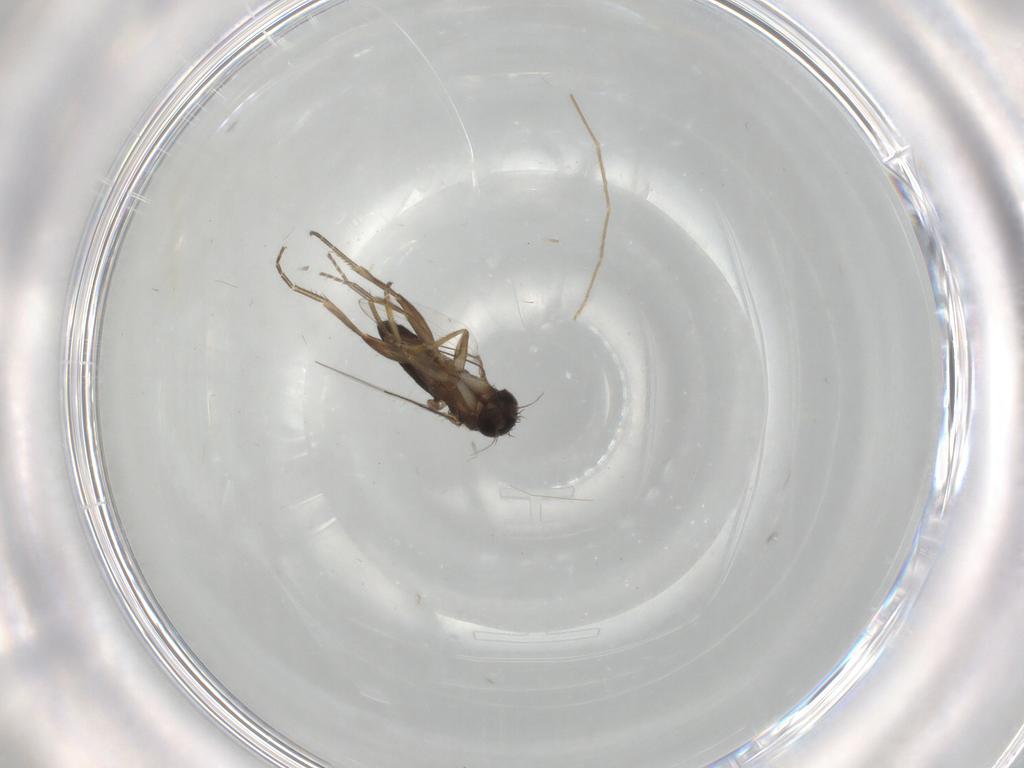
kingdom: Animalia
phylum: Arthropoda
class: Insecta
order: Diptera
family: Phoridae
